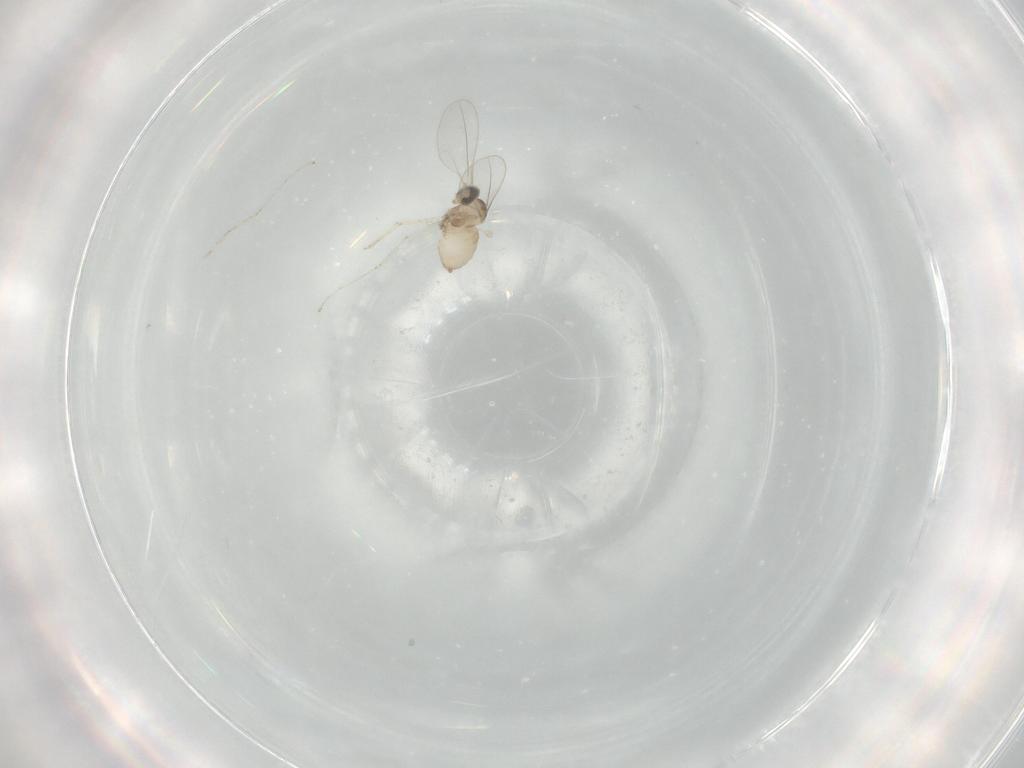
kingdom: Animalia
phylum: Arthropoda
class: Insecta
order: Diptera
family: Cecidomyiidae
